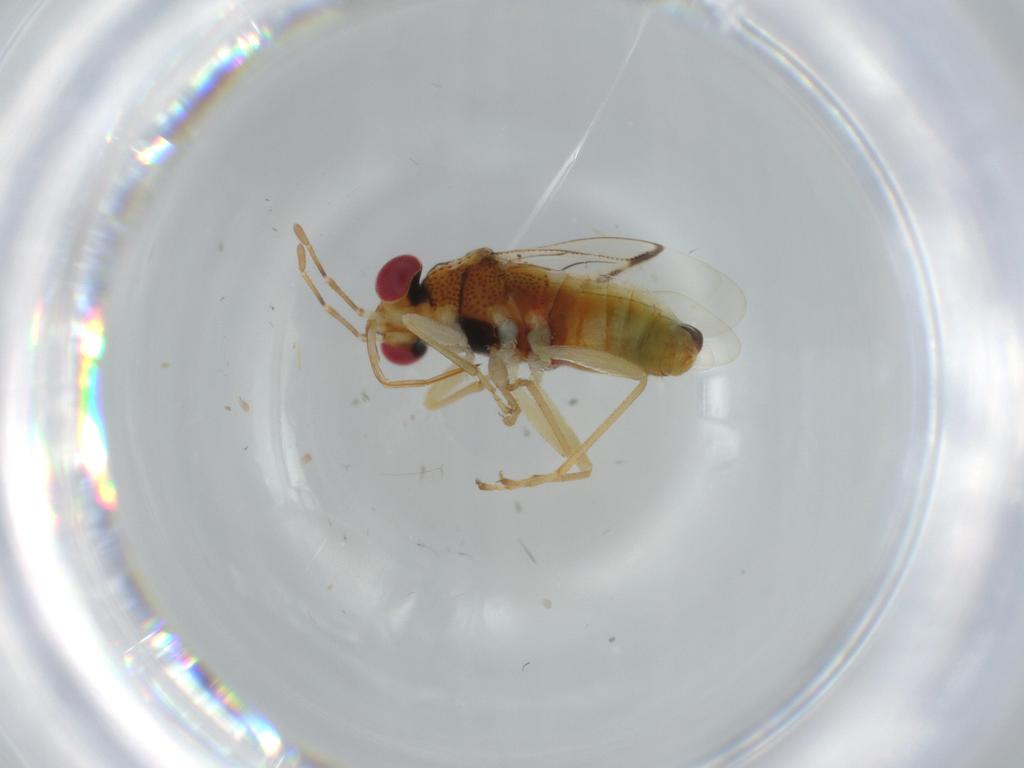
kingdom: Animalia
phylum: Arthropoda
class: Insecta
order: Hemiptera
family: Geocoridae
